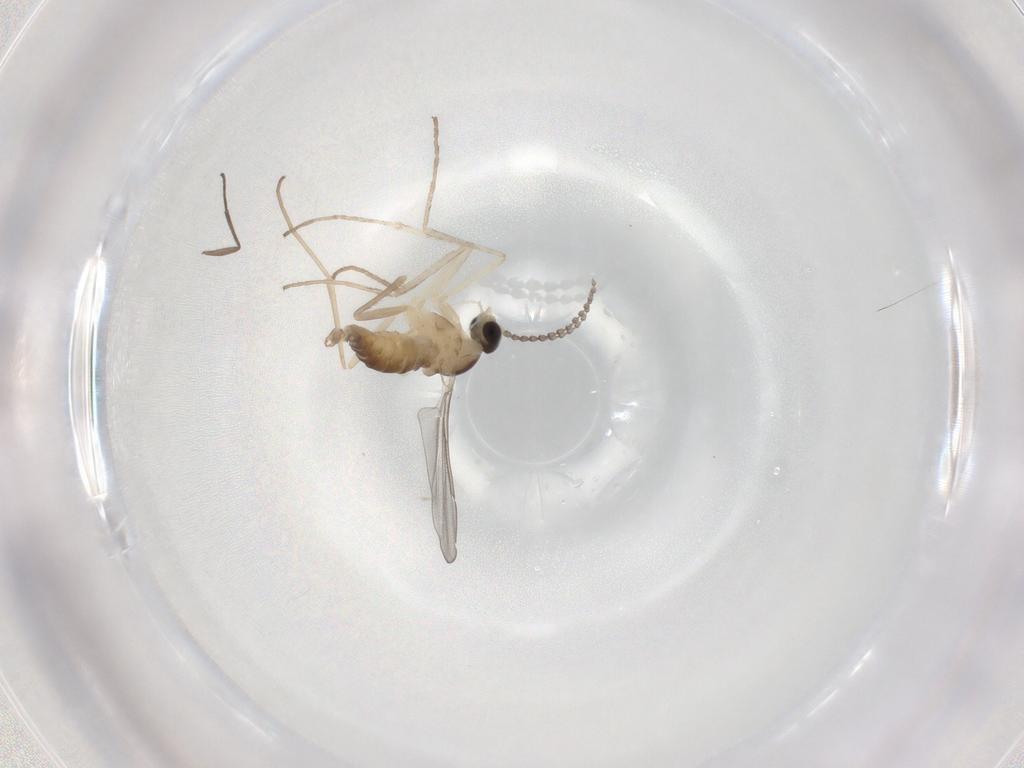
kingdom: Animalia
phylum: Arthropoda
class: Insecta
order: Diptera
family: Cecidomyiidae
